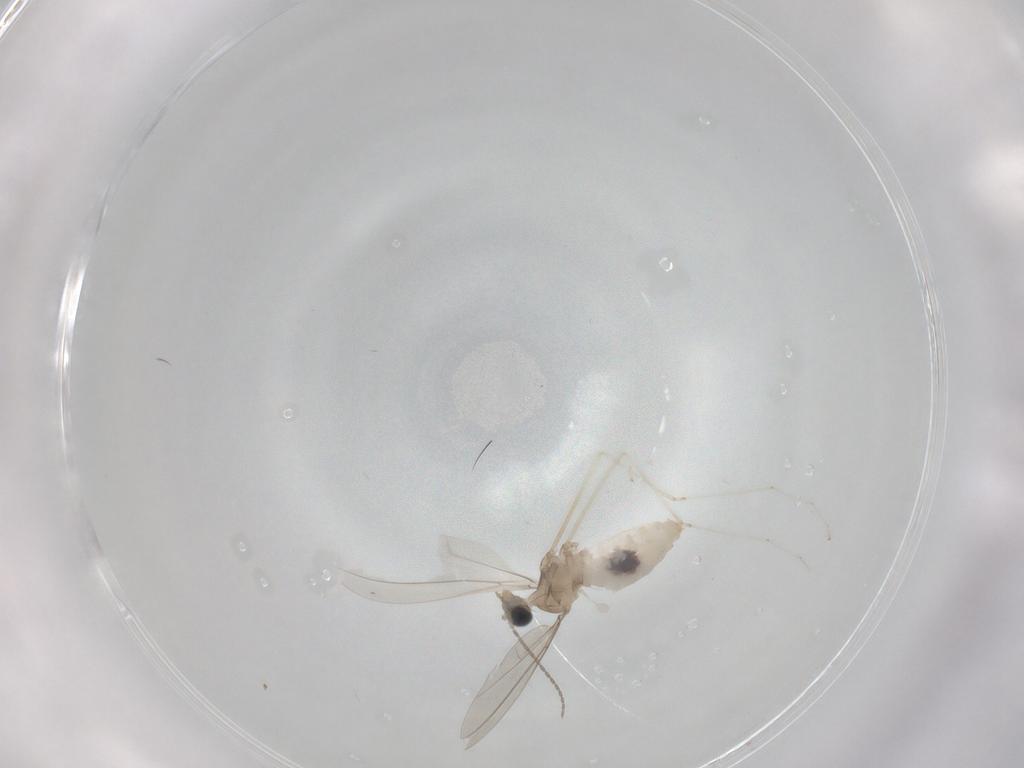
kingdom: Animalia
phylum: Arthropoda
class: Insecta
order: Diptera
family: Cecidomyiidae
